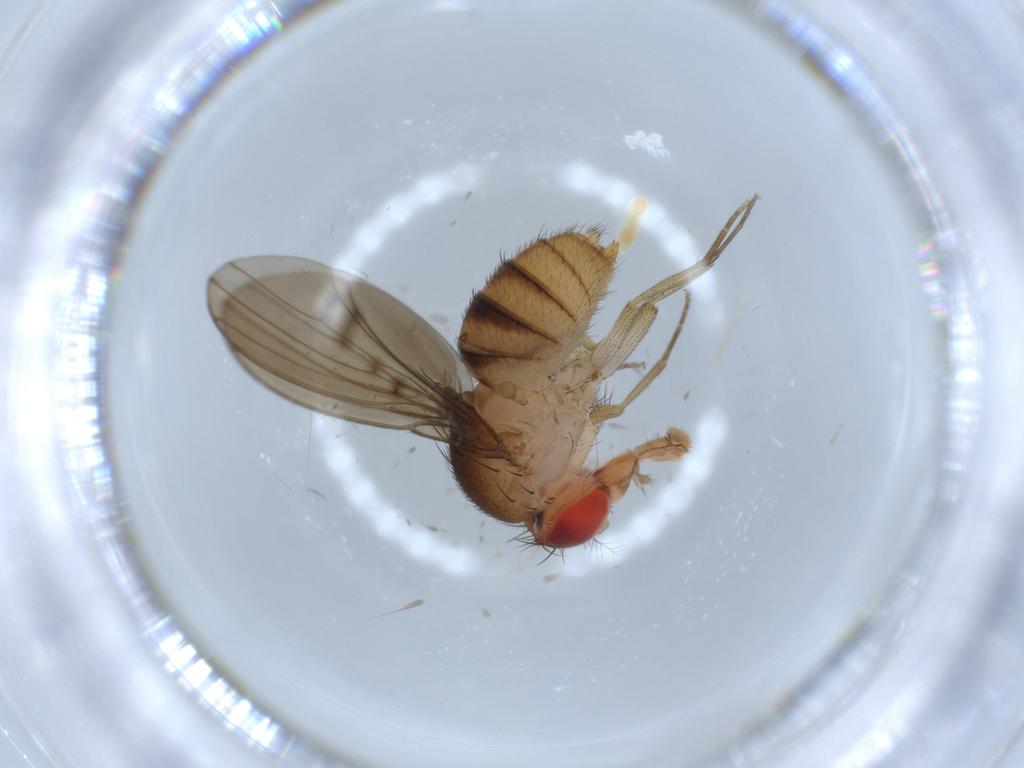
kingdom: Animalia
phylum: Arthropoda
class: Insecta
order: Diptera
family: Drosophilidae
